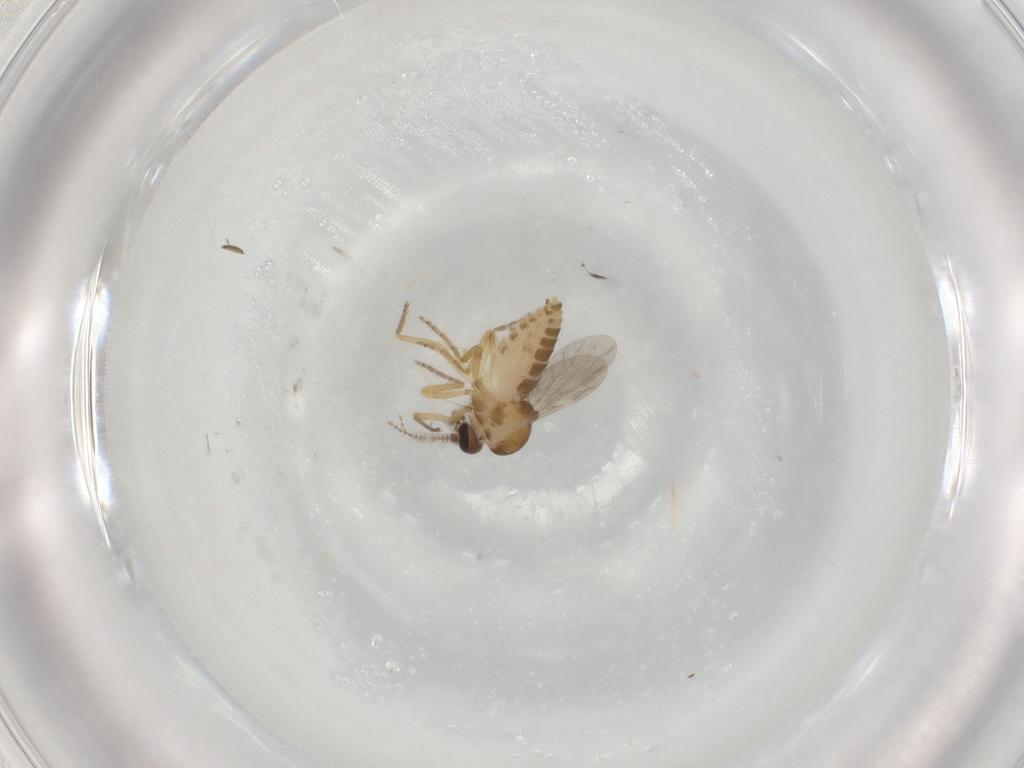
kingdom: Animalia
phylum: Arthropoda
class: Insecta
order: Diptera
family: Ceratopogonidae
